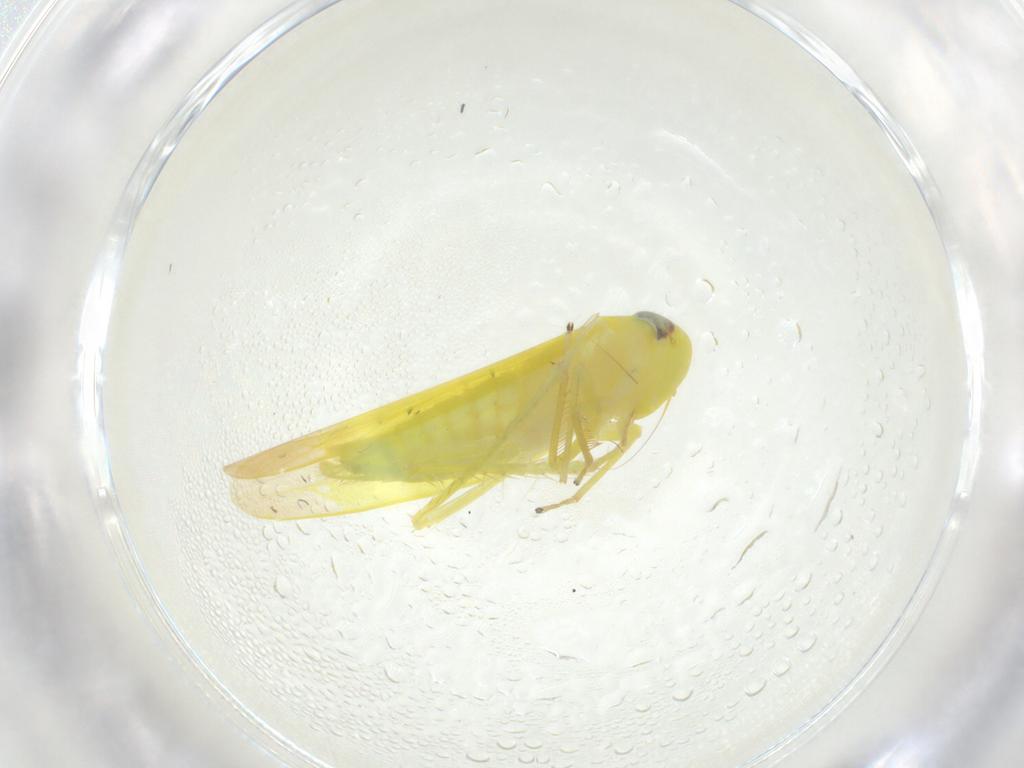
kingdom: Animalia
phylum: Arthropoda
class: Insecta
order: Hemiptera
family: Cicadellidae
